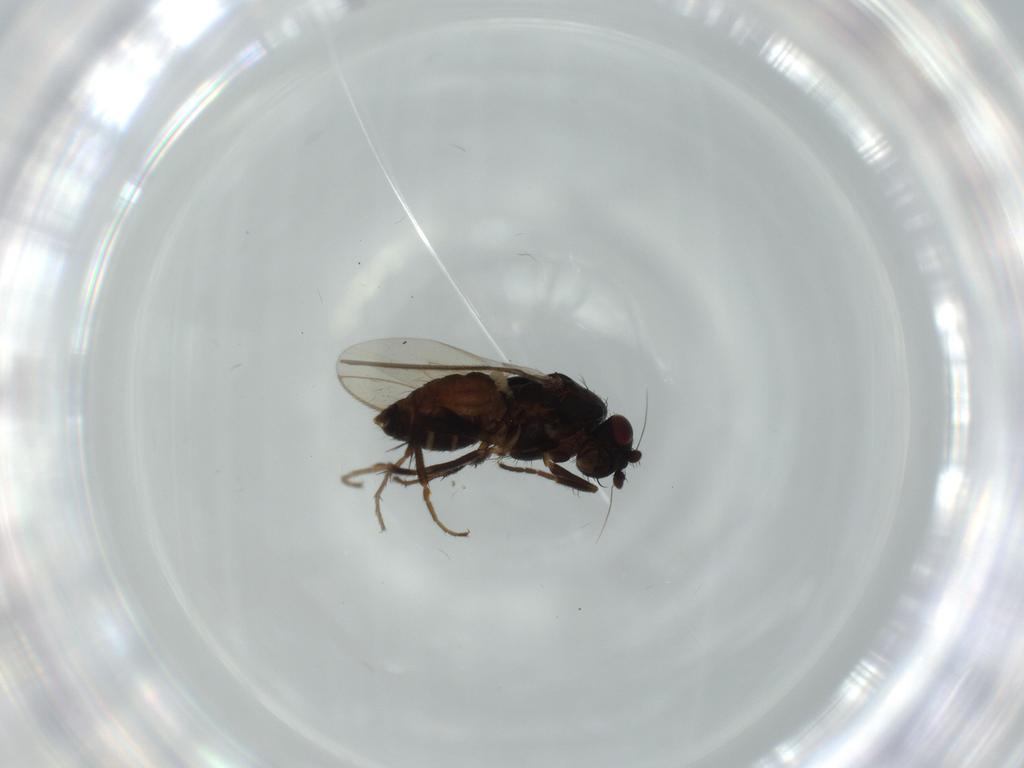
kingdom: Animalia
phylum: Arthropoda
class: Insecta
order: Diptera
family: Sphaeroceridae
